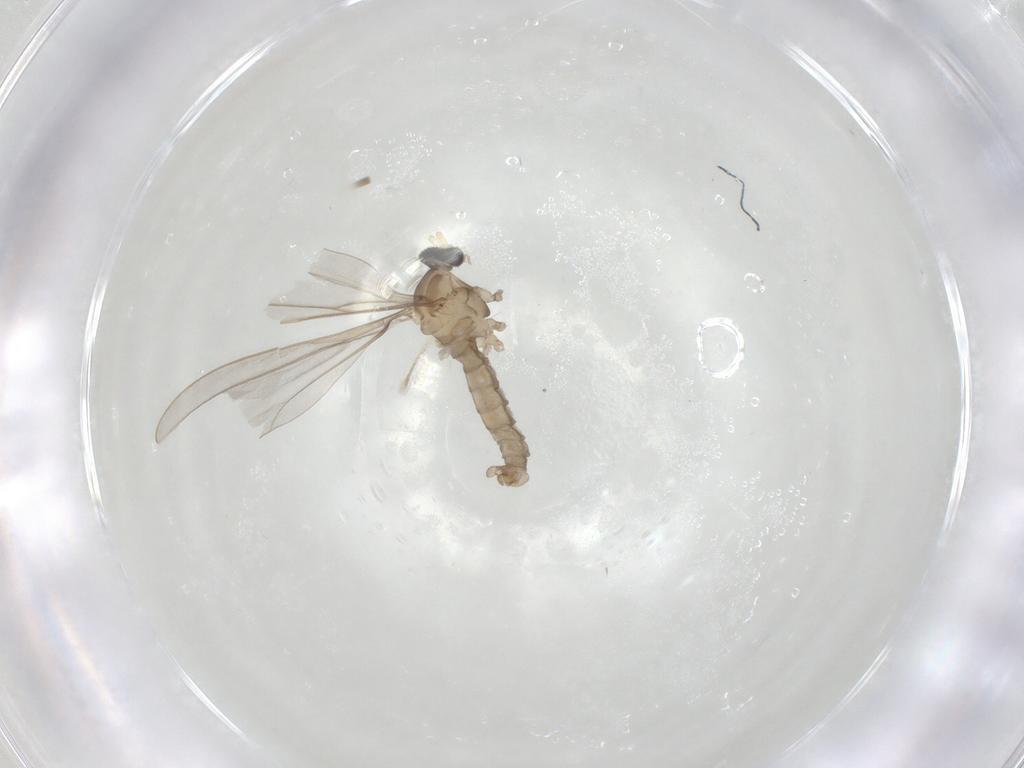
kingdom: Animalia
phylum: Arthropoda
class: Insecta
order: Diptera
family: Cecidomyiidae
